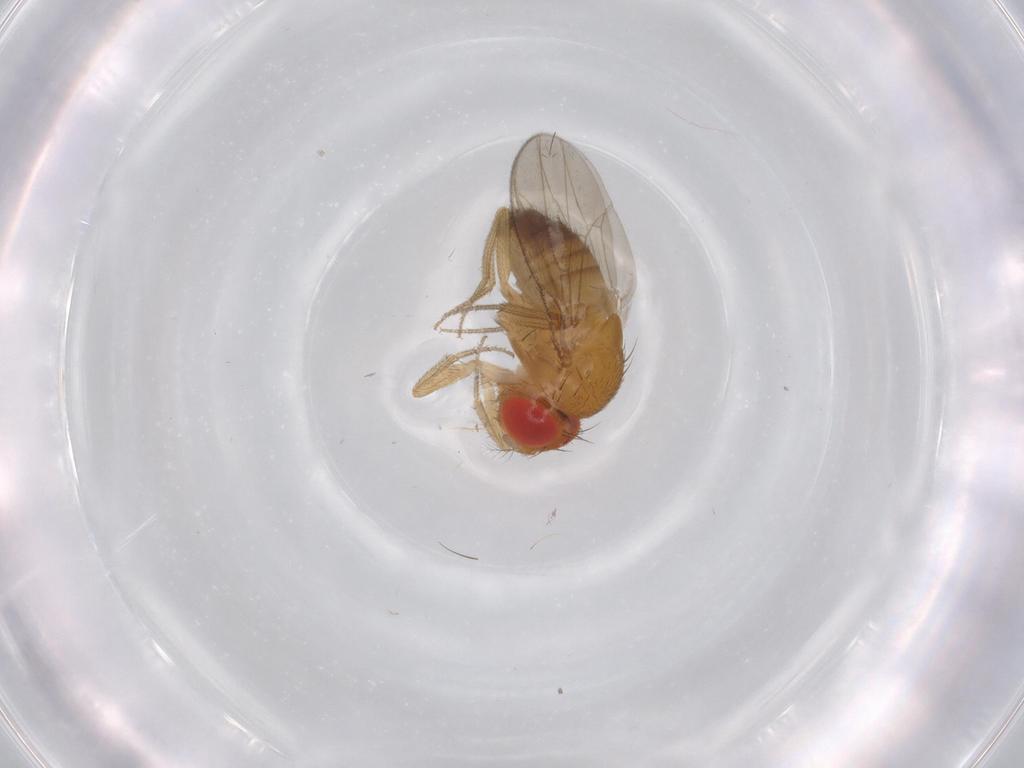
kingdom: Animalia
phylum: Arthropoda
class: Insecta
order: Diptera
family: Drosophilidae
